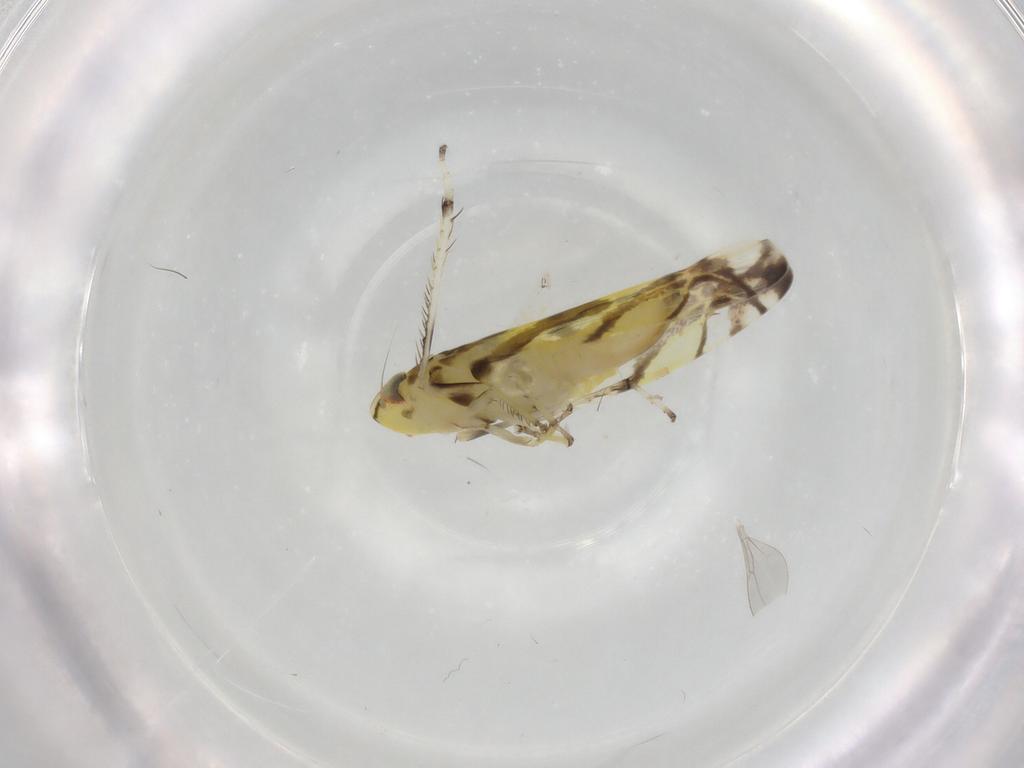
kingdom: Animalia
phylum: Arthropoda
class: Insecta
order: Hemiptera
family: Cicadellidae
